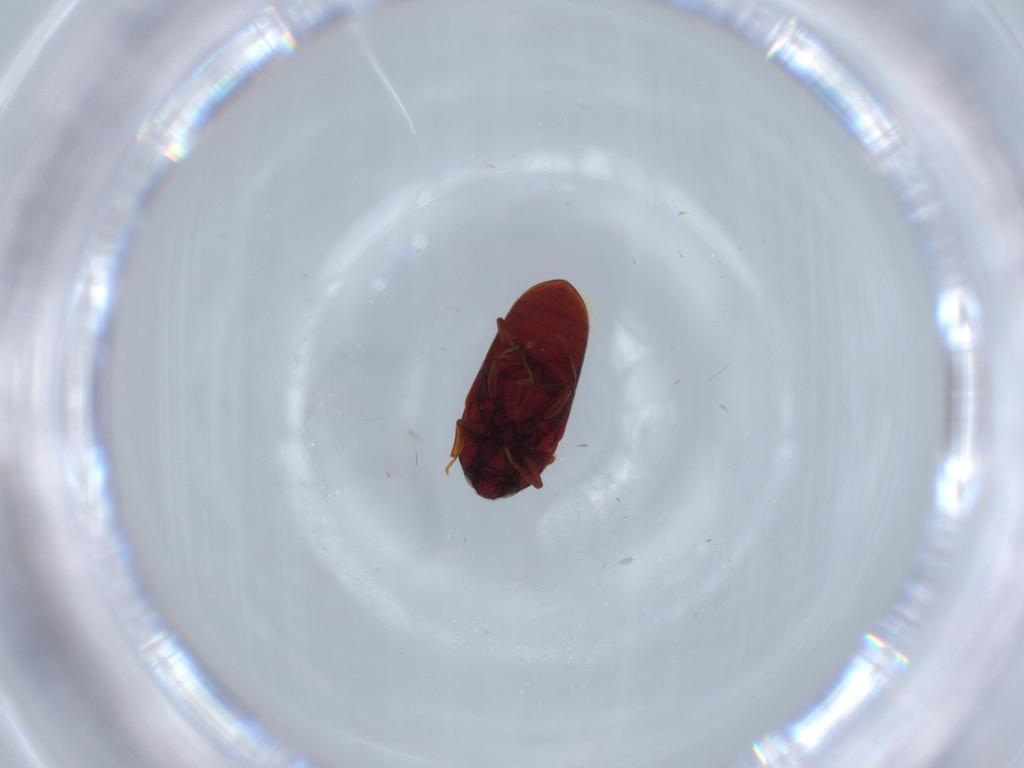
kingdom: Animalia
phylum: Arthropoda
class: Insecta
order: Coleoptera
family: Throscidae
